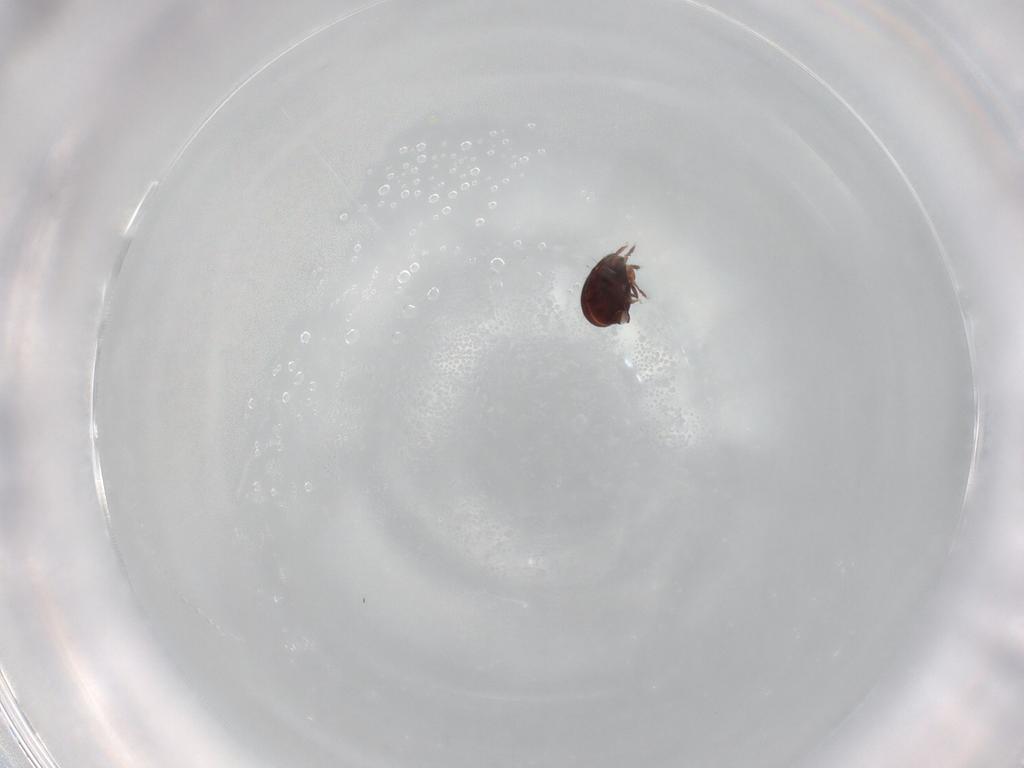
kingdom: Animalia
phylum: Arthropoda
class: Arachnida
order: Sarcoptiformes
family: Humerobatidae
